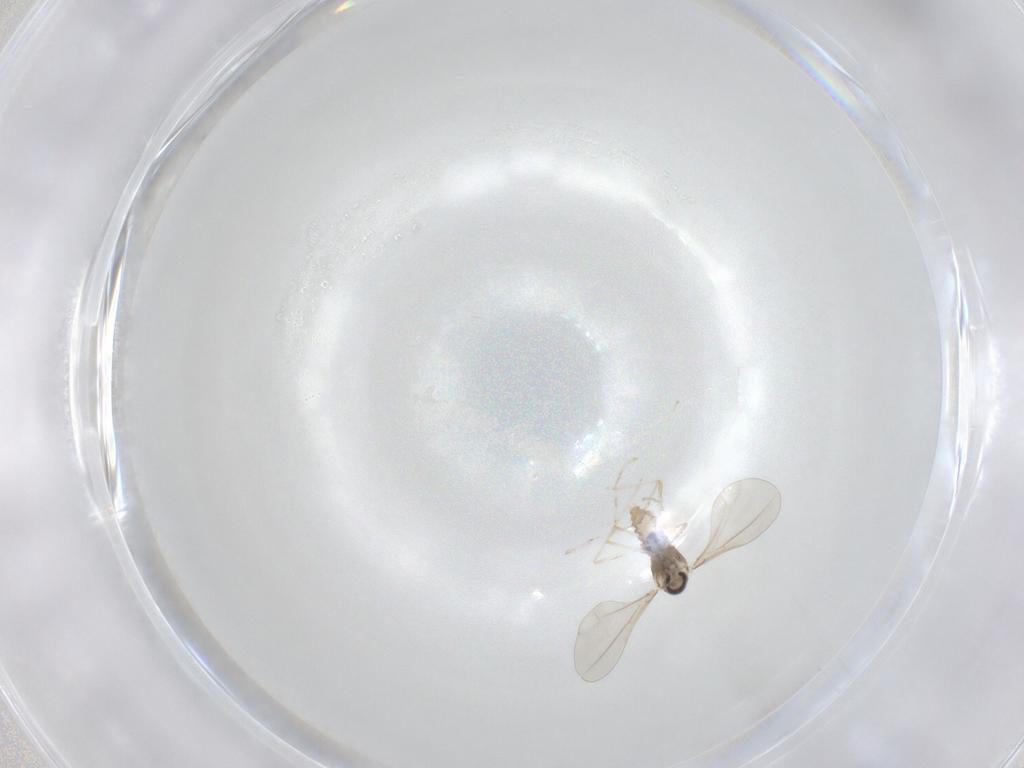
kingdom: Animalia
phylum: Arthropoda
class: Insecta
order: Diptera
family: Cecidomyiidae
